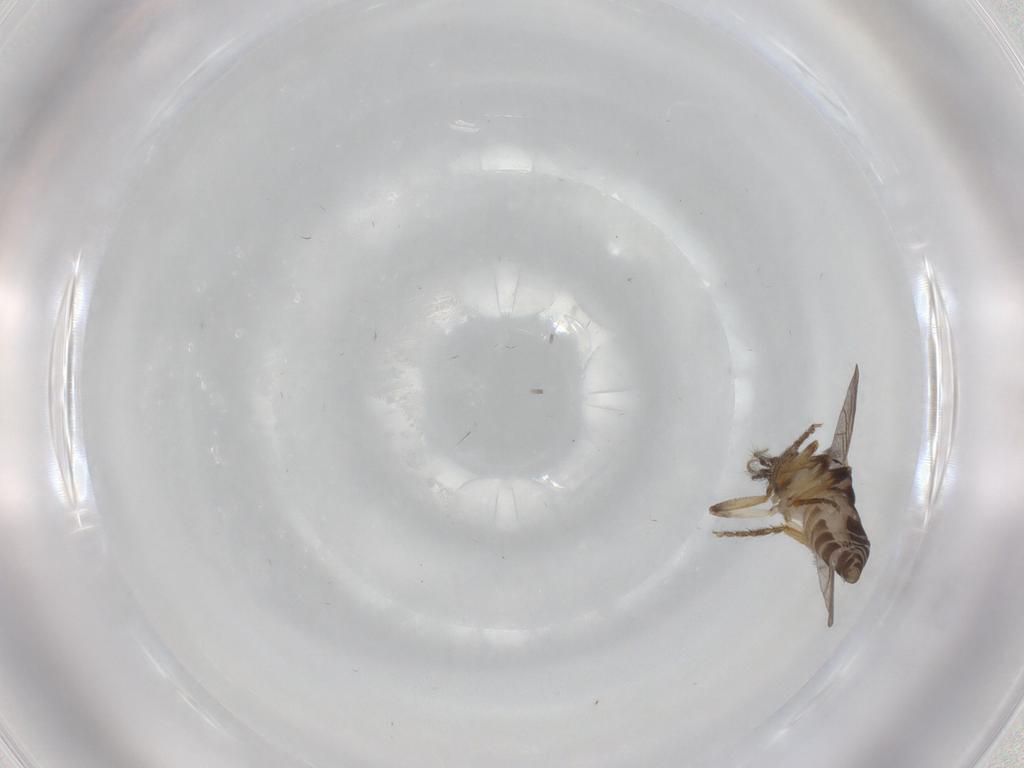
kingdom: Animalia
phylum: Arthropoda
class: Insecta
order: Diptera
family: Ceratopogonidae
